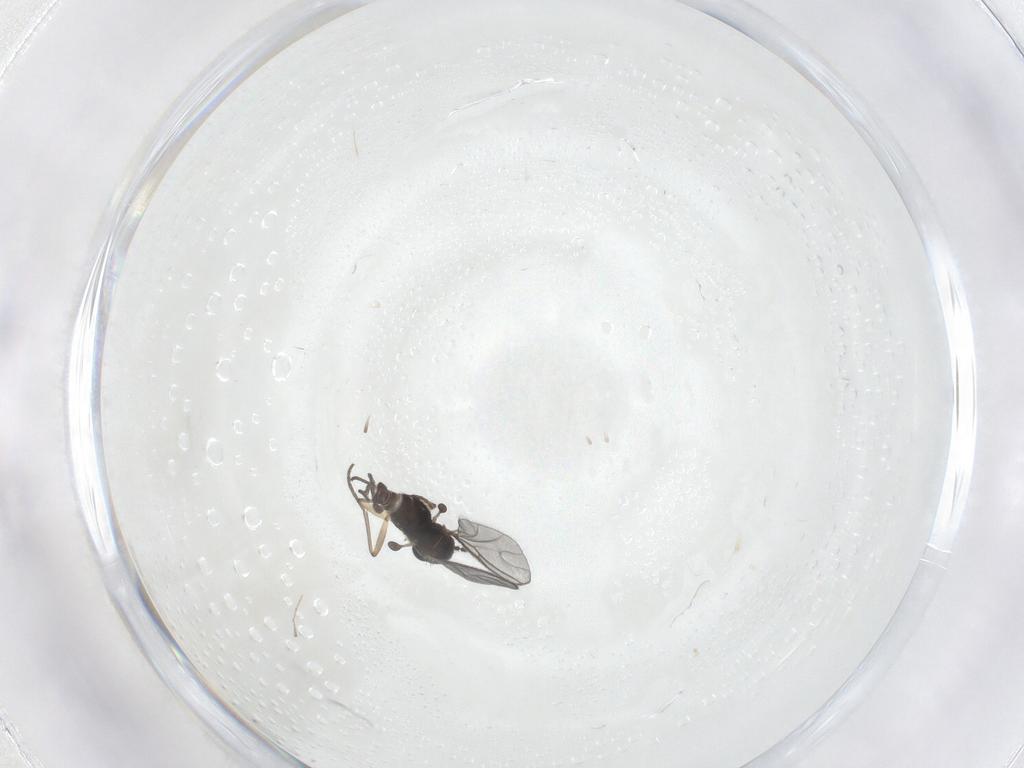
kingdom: Animalia
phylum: Arthropoda
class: Insecta
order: Diptera
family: Sciaridae
